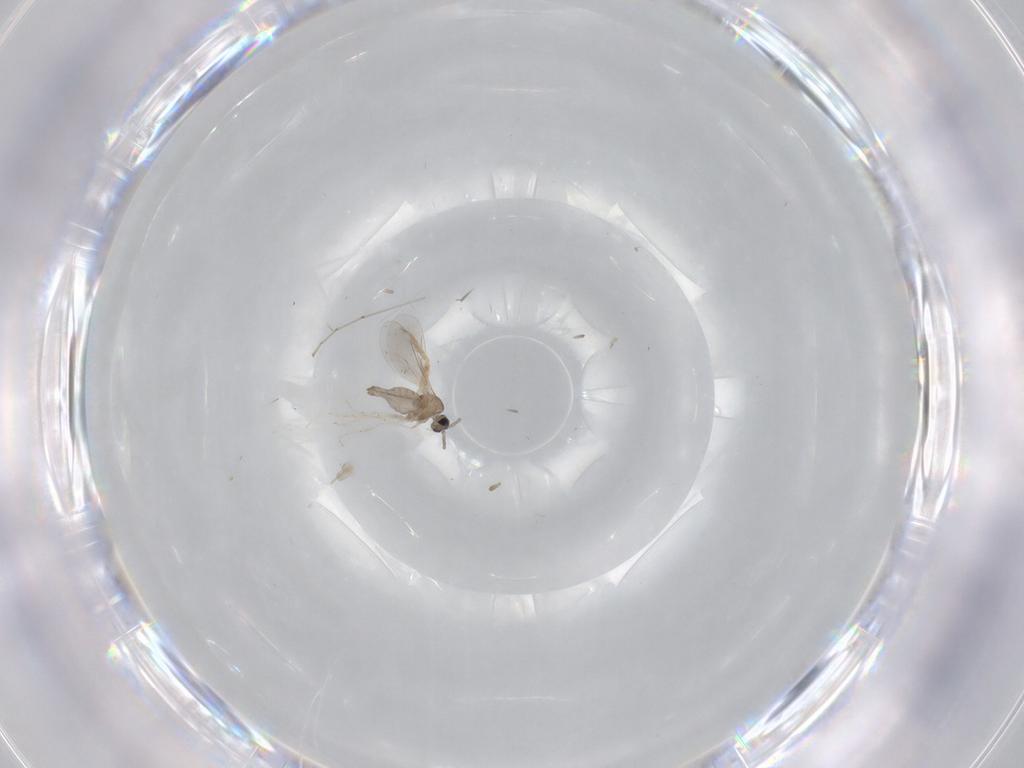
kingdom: Animalia
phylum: Arthropoda
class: Insecta
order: Diptera
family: Cecidomyiidae
